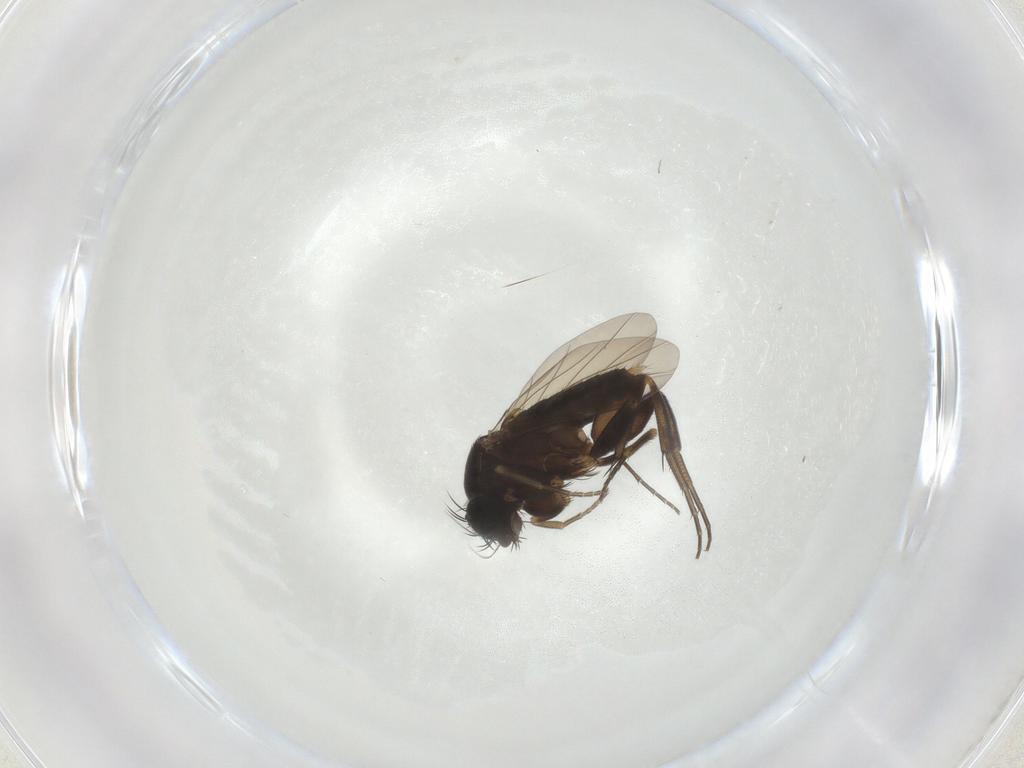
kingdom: Animalia
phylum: Arthropoda
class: Insecta
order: Diptera
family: Phoridae
